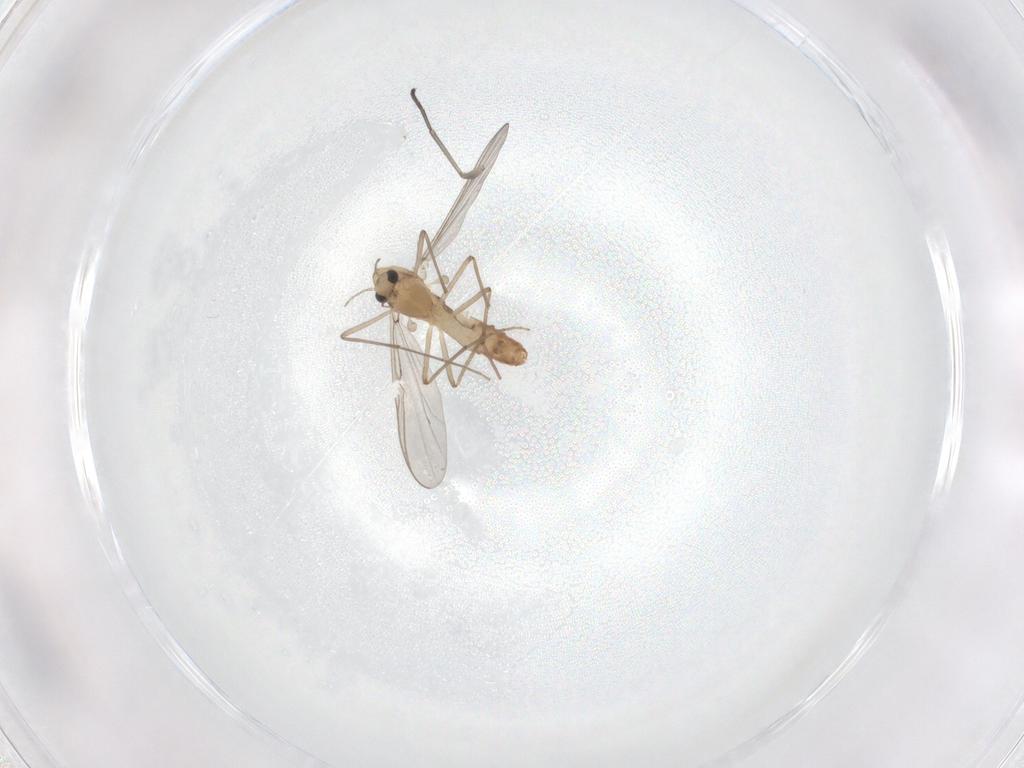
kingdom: Animalia
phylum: Arthropoda
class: Insecta
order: Diptera
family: Chironomidae
